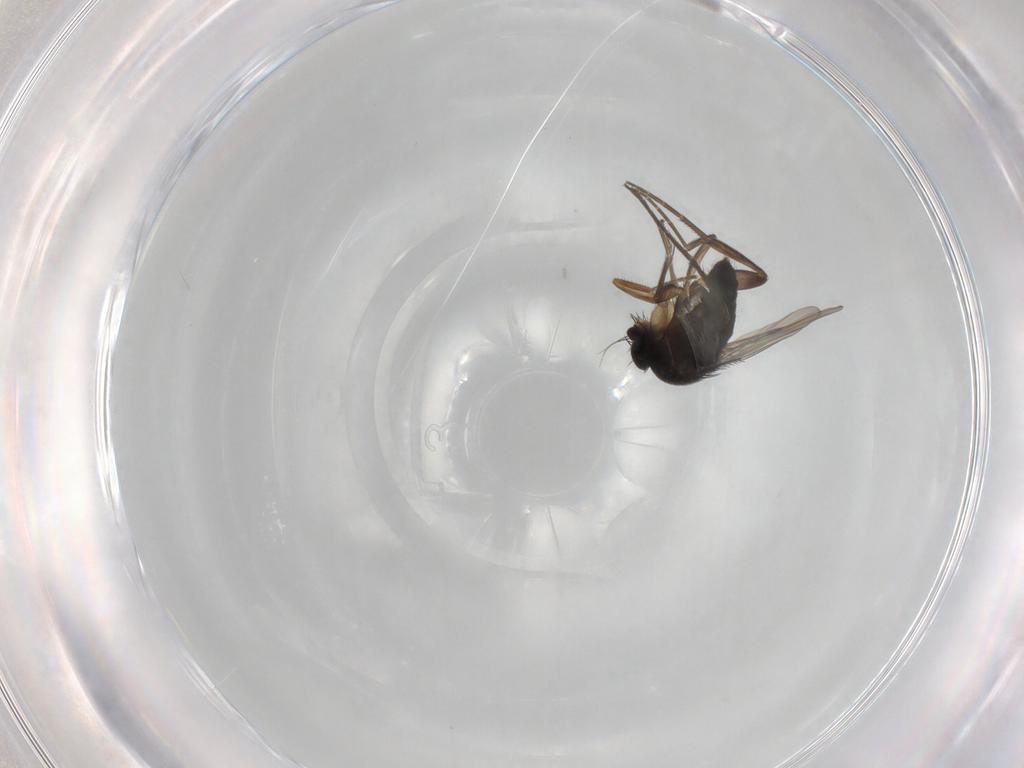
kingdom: Animalia
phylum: Arthropoda
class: Insecta
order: Diptera
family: Phoridae
